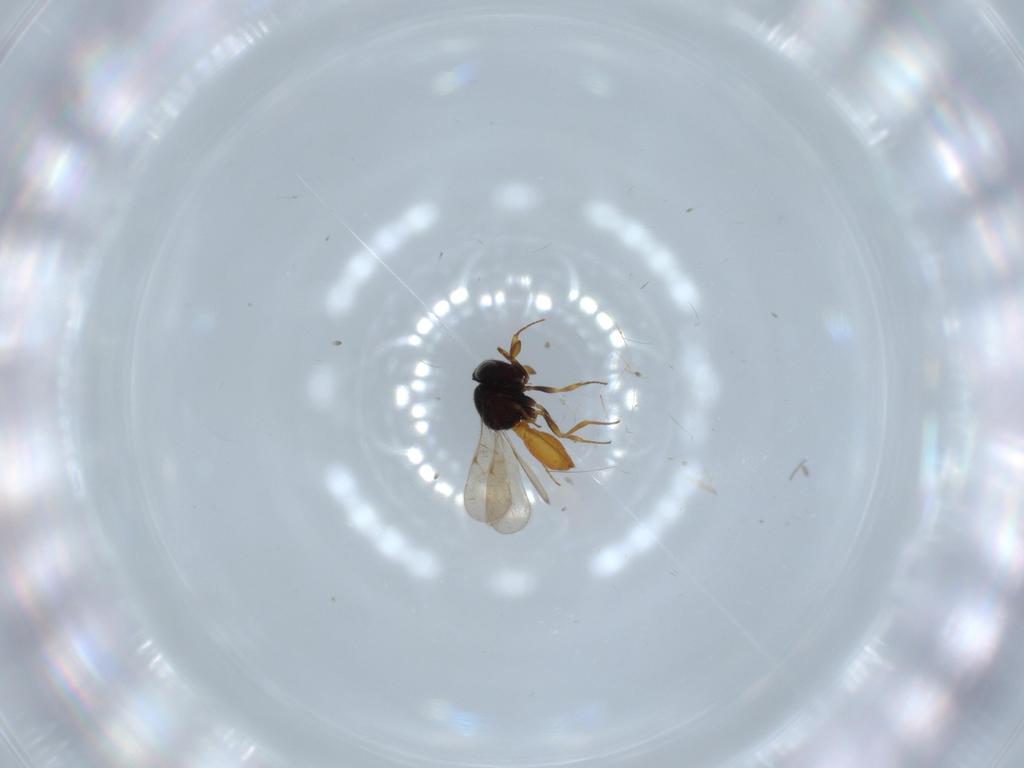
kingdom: Animalia
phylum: Arthropoda
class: Insecta
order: Hymenoptera
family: Scelionidae
